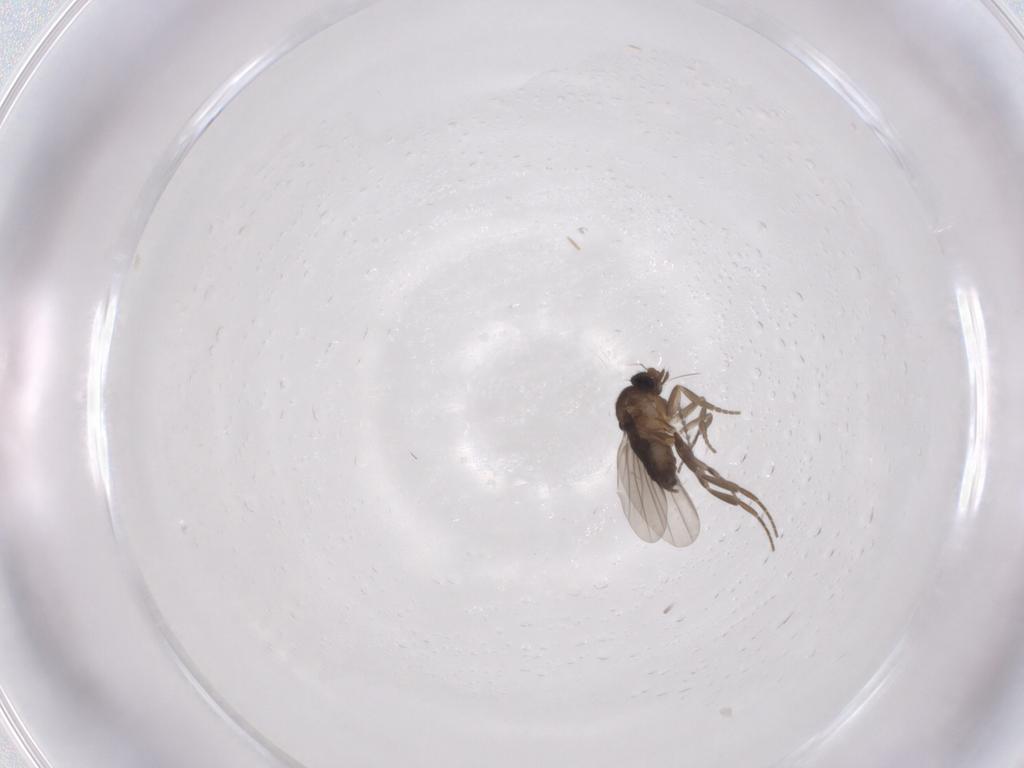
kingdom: Animalia
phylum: Arthropoda
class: Insecta
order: Diptera
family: Phoridae
